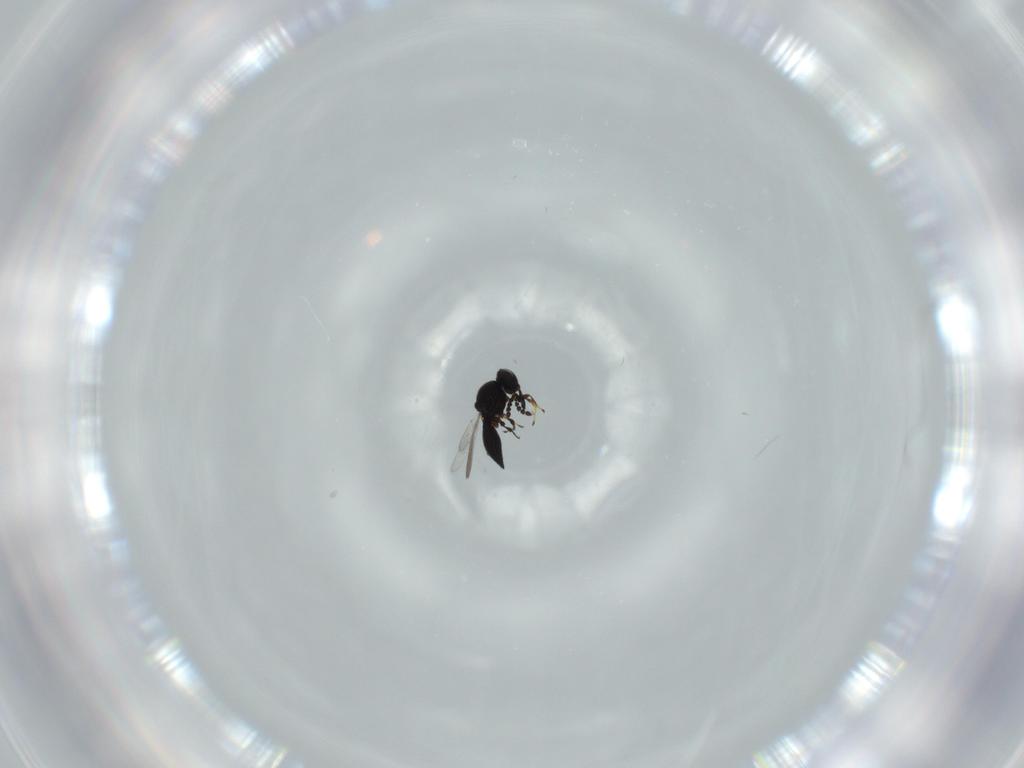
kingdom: Animalia
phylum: Arthropoda
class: Insecta
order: Hymenoptera
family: Platygastridae
